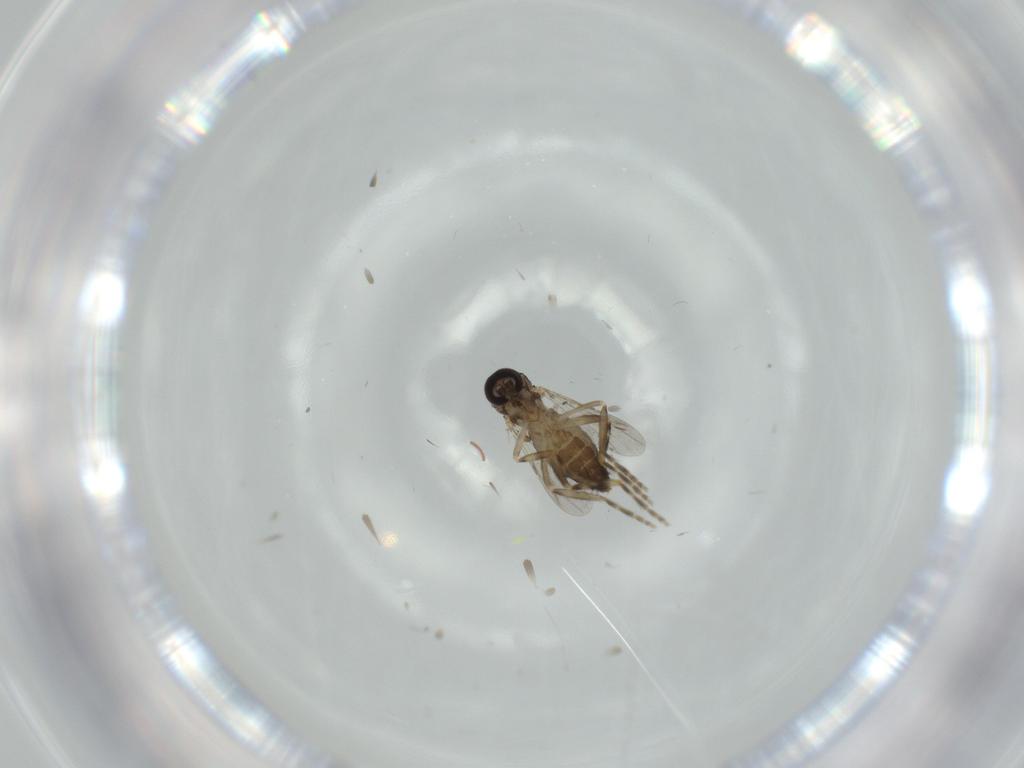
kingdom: Animalia
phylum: Arthropoda
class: Insecta
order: Diptera
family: Ceratopogonidae
